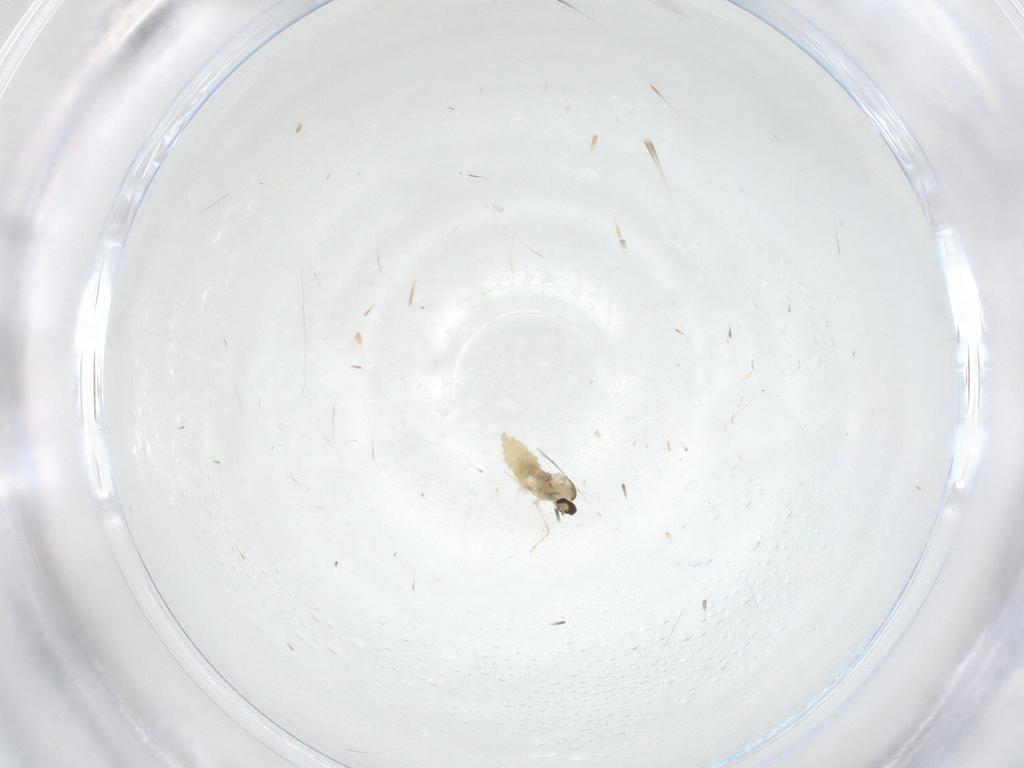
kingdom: Animalia
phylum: Arthropoda
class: Insecta
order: Diptera
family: Cecidomyiidae
